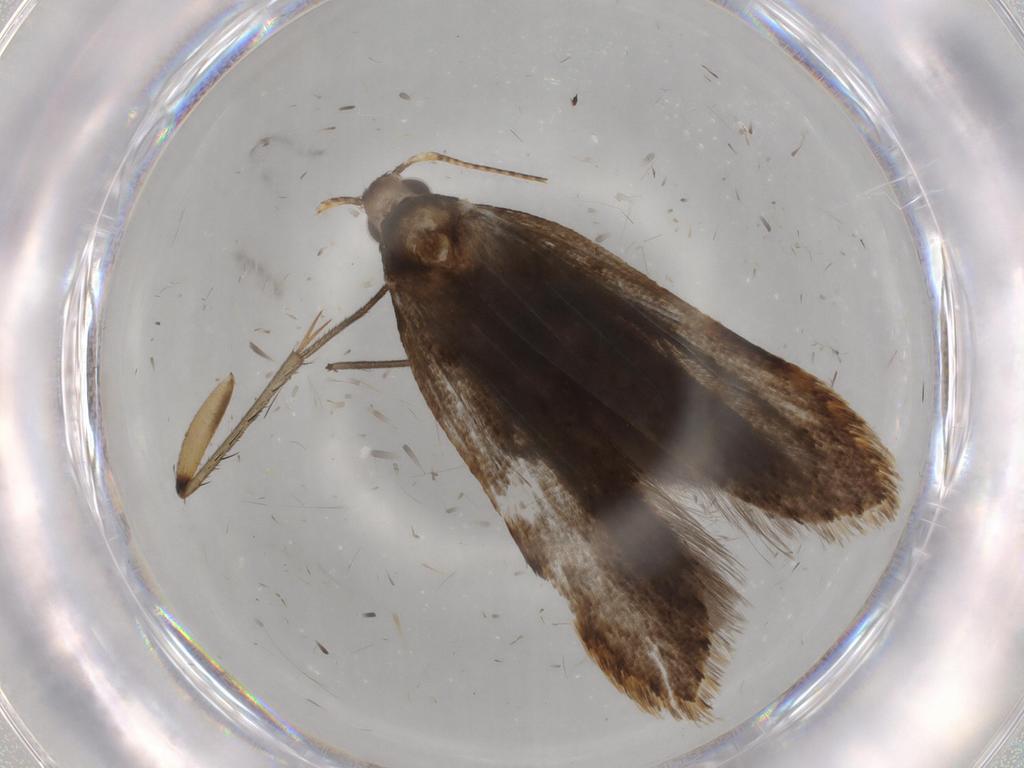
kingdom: Animalia
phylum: Arthropoda
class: Insecta
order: Lepidoptera
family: Gelechiidae
